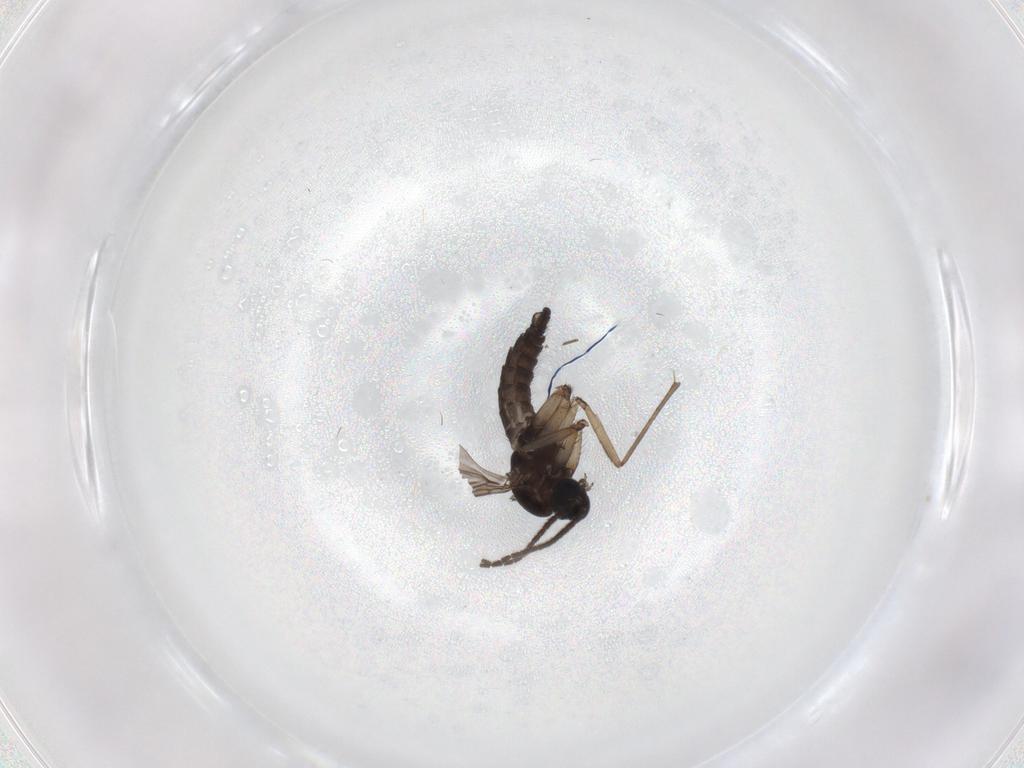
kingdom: Animalia
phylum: Arthropoda
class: Insecta
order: Diptera
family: Sciaridae
